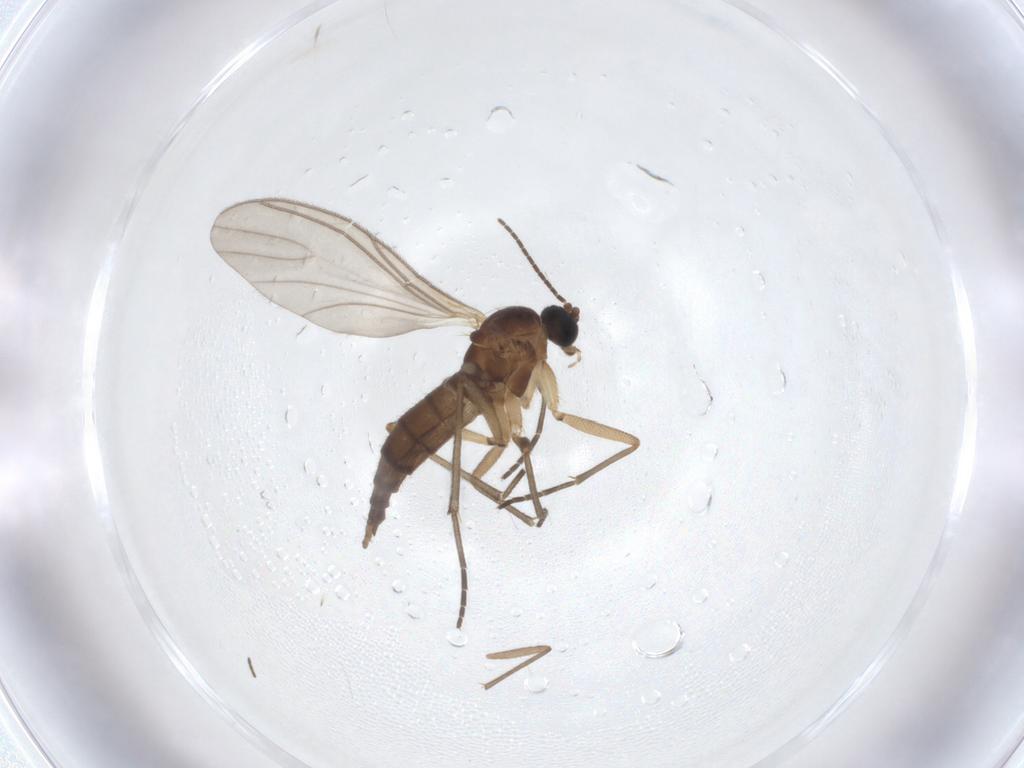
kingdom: Animalia
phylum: Arthropoda
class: Insecta
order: Diptera
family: Sciaridae
